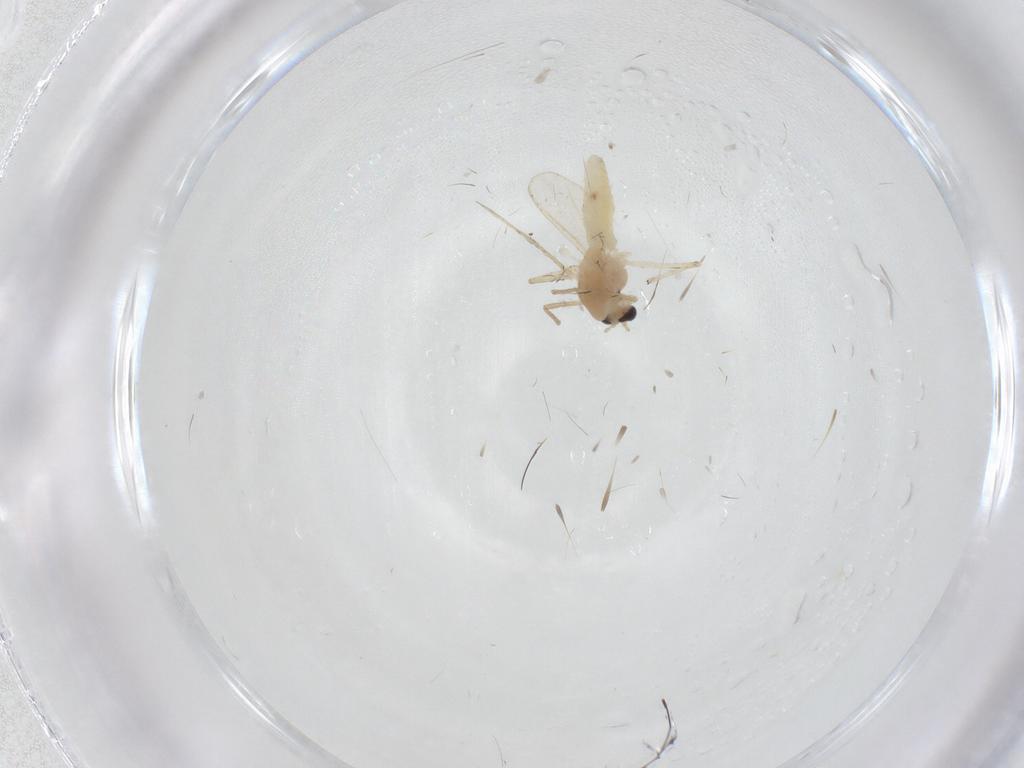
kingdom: Animalia
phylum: Arthropoda
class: Insecta
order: Diptera
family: Chironomidae
